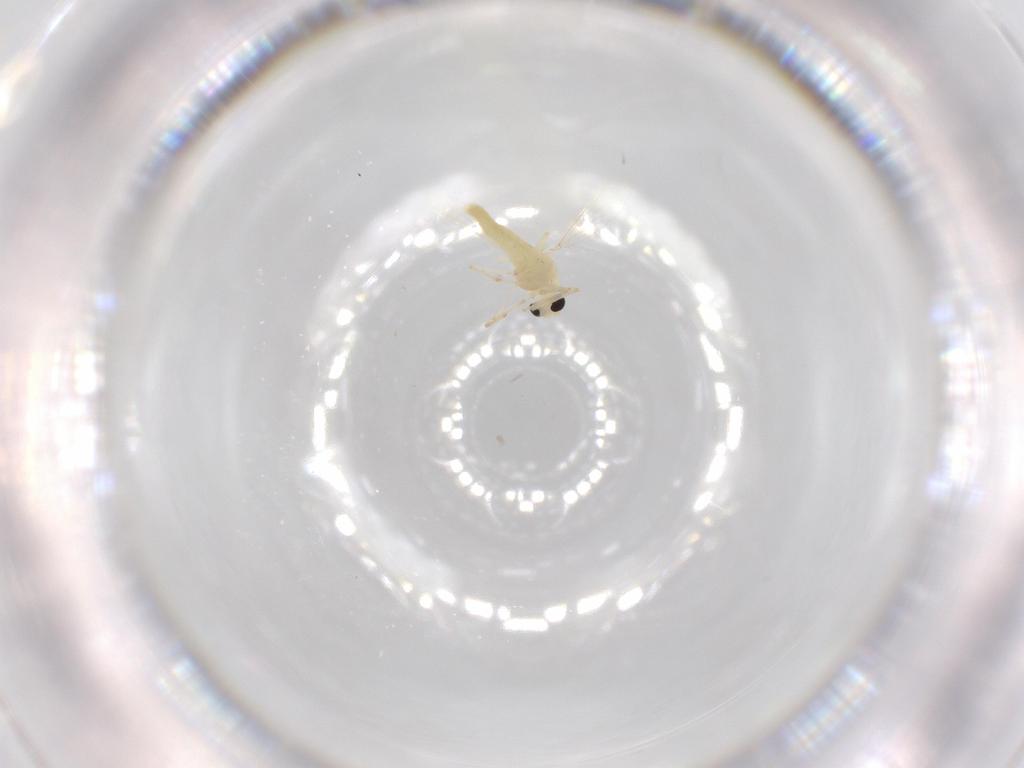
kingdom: Animalia
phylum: Arthropoda
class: Insecta
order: Diptera
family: Chironomidae
